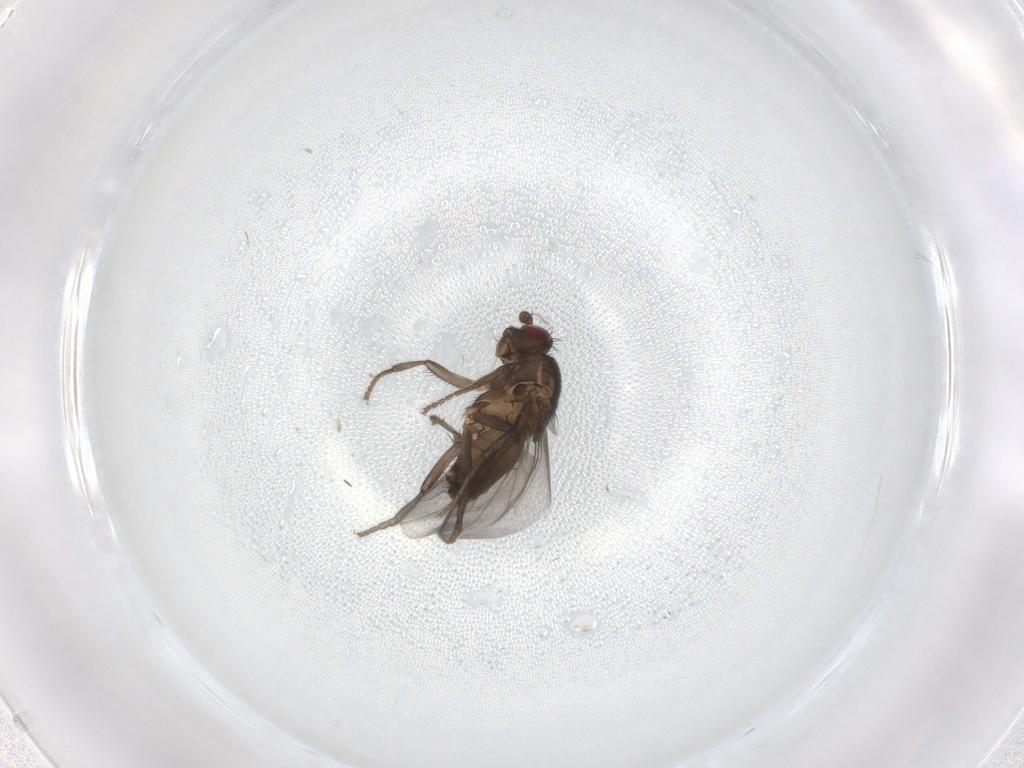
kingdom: Animalia
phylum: Arthropoda
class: Insecta
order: Diptera
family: Sphaeroceridae
